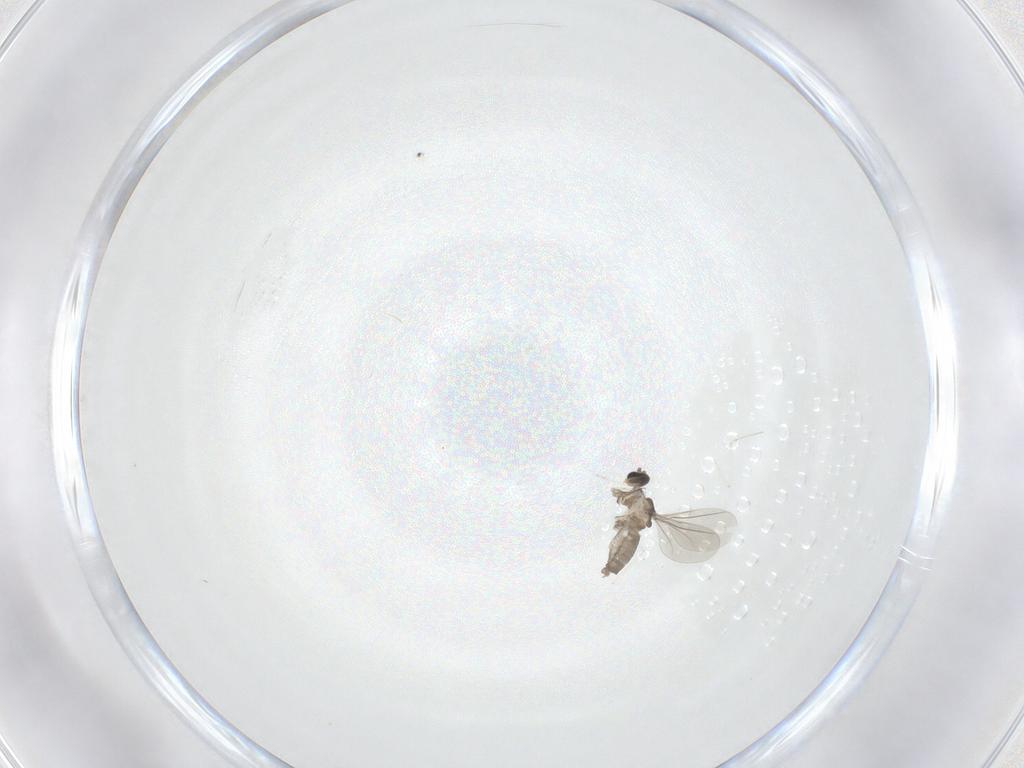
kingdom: Animalia
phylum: Arthropoda
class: Insecta
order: Diptera
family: Cecidomyiidae
